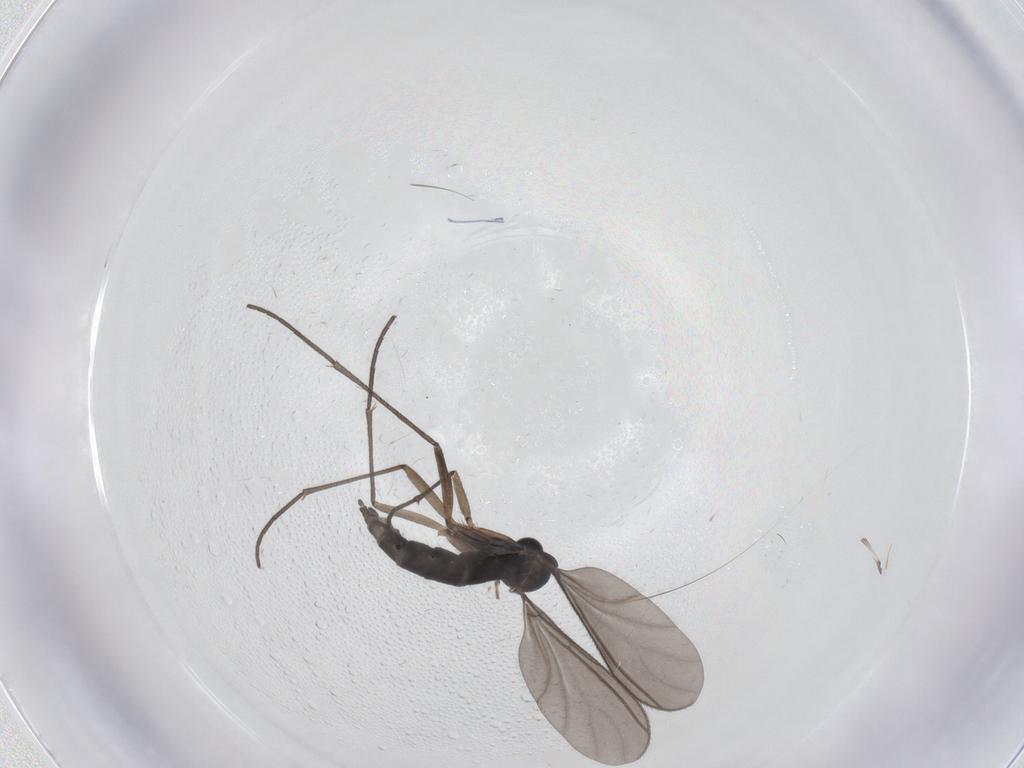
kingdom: Animalia
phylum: Arthropoda
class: Insecta
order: Diptera
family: Sciaridae
